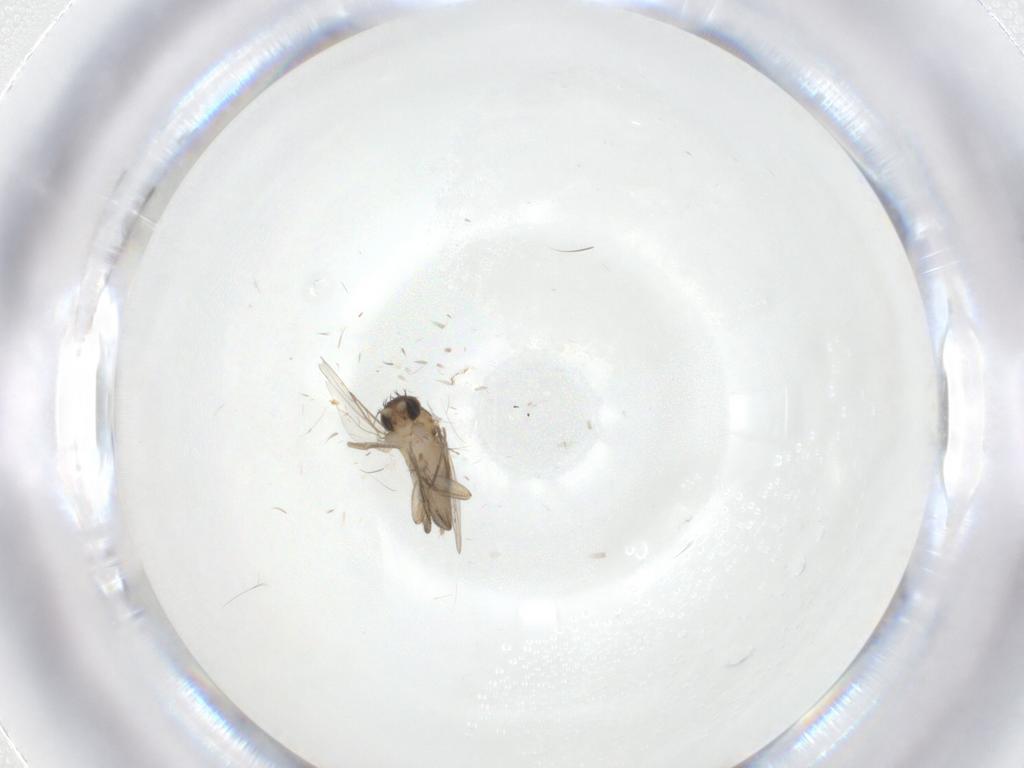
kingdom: Animalia
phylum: Arthropoda
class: Insecta
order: Diptera
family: Phoridae
